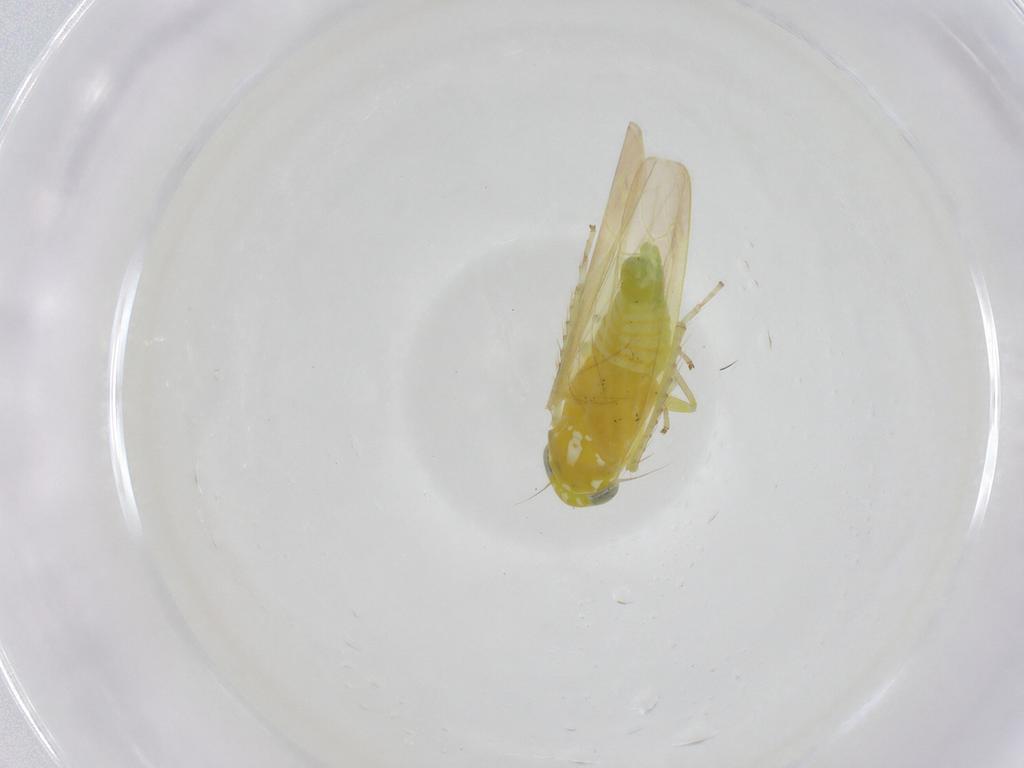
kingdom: Animalia
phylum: Arthropoda
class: Insecta
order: Hemiptera
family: Cicadellidae
